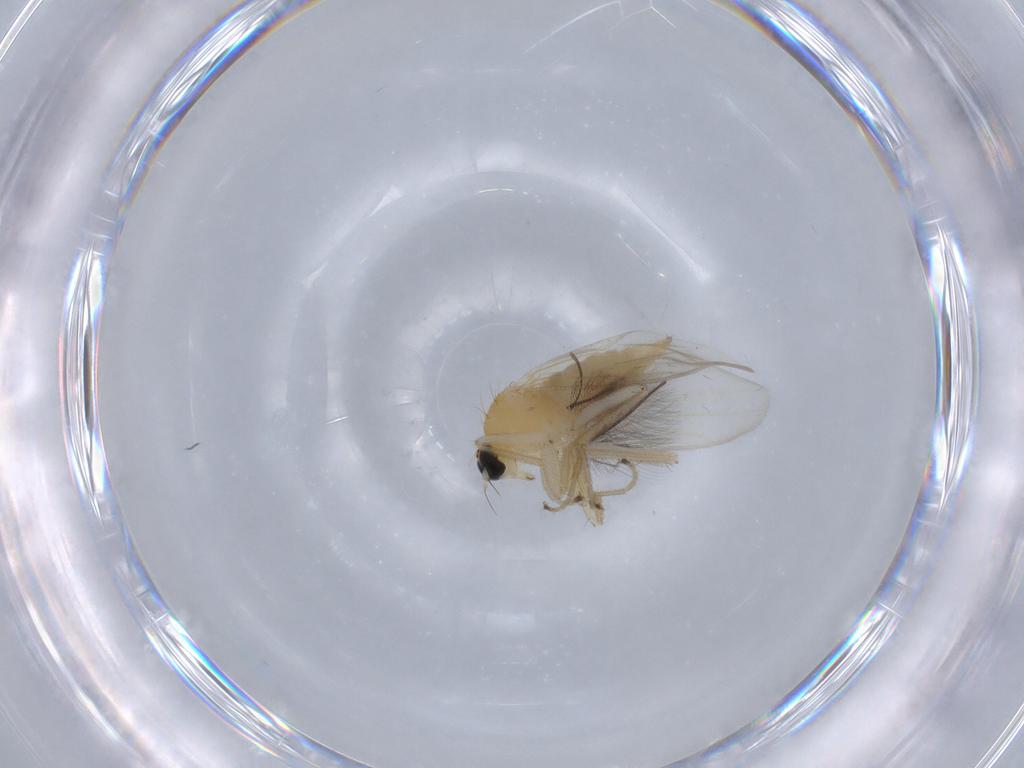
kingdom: Animalia
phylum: Arthropoda
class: Insecta
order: Diptera
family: Hybotidae
